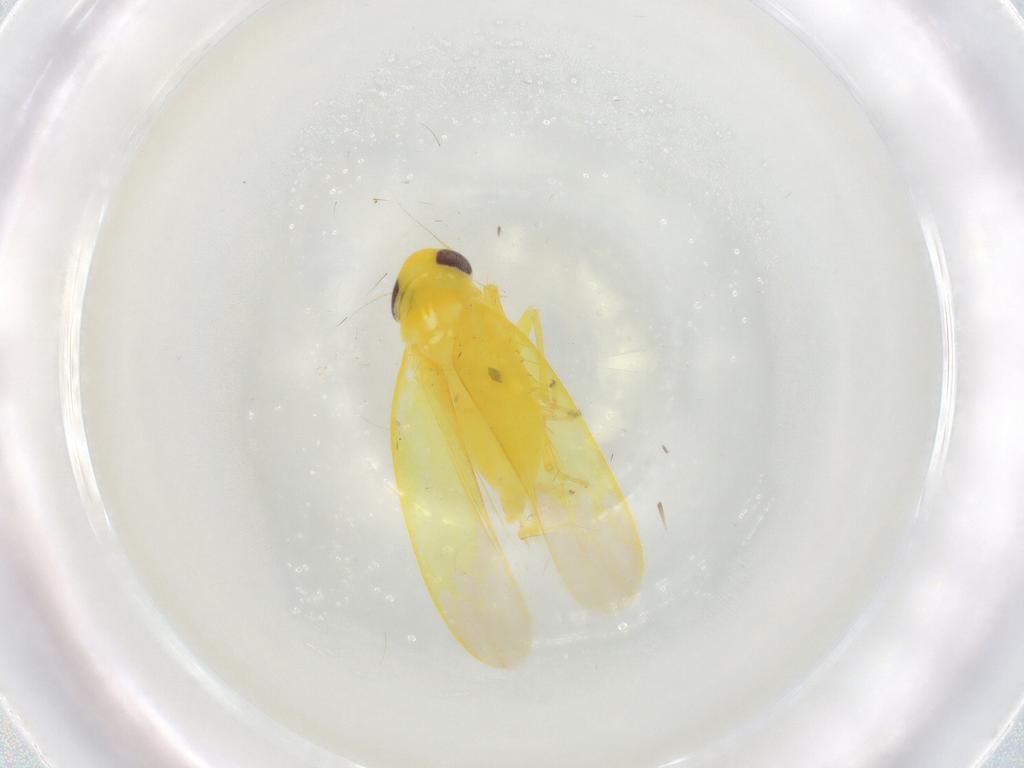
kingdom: Animalia
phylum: Arthropoda
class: Insecta
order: Hemiptera
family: Cicadellidae
